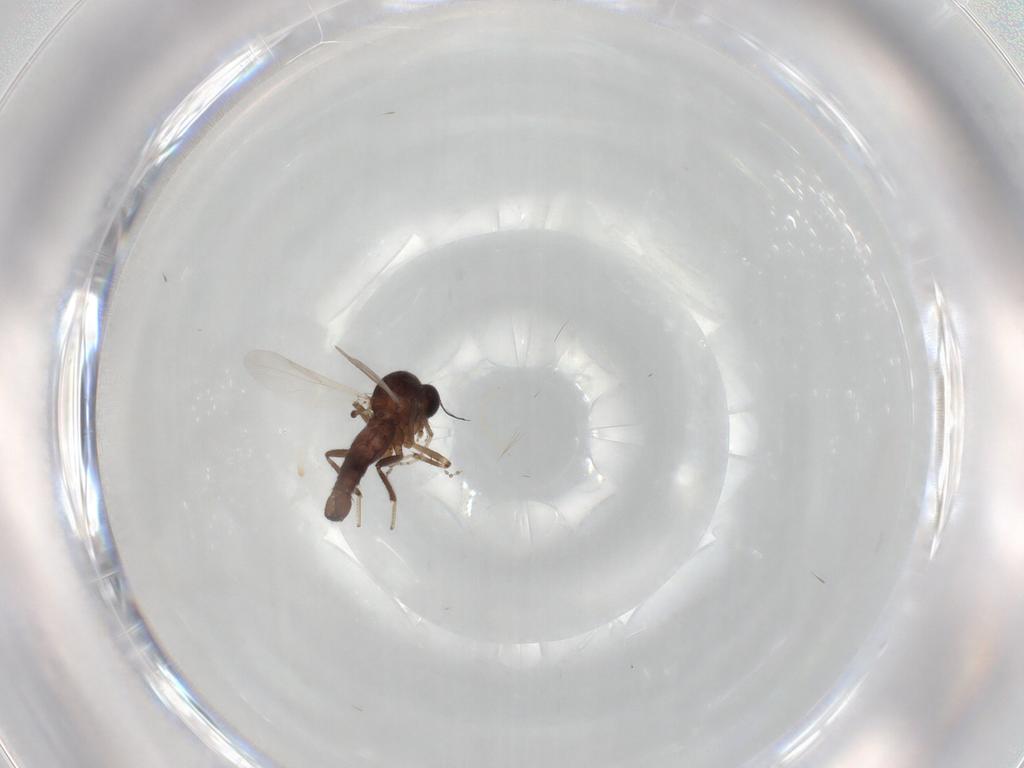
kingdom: Animalia
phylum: Arthropoda
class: Insecta
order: Diptera
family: Ceratopogonidae
